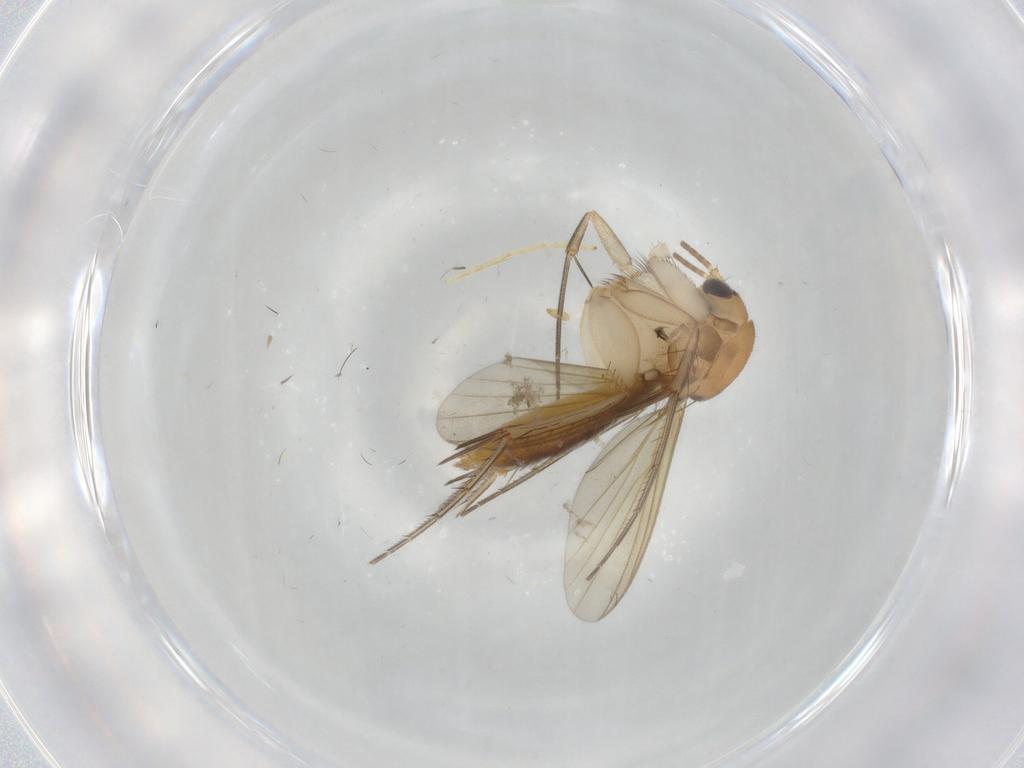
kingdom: Animalia
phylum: Arthropoda
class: Insecta
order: Diptera
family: Mycetophilidae
